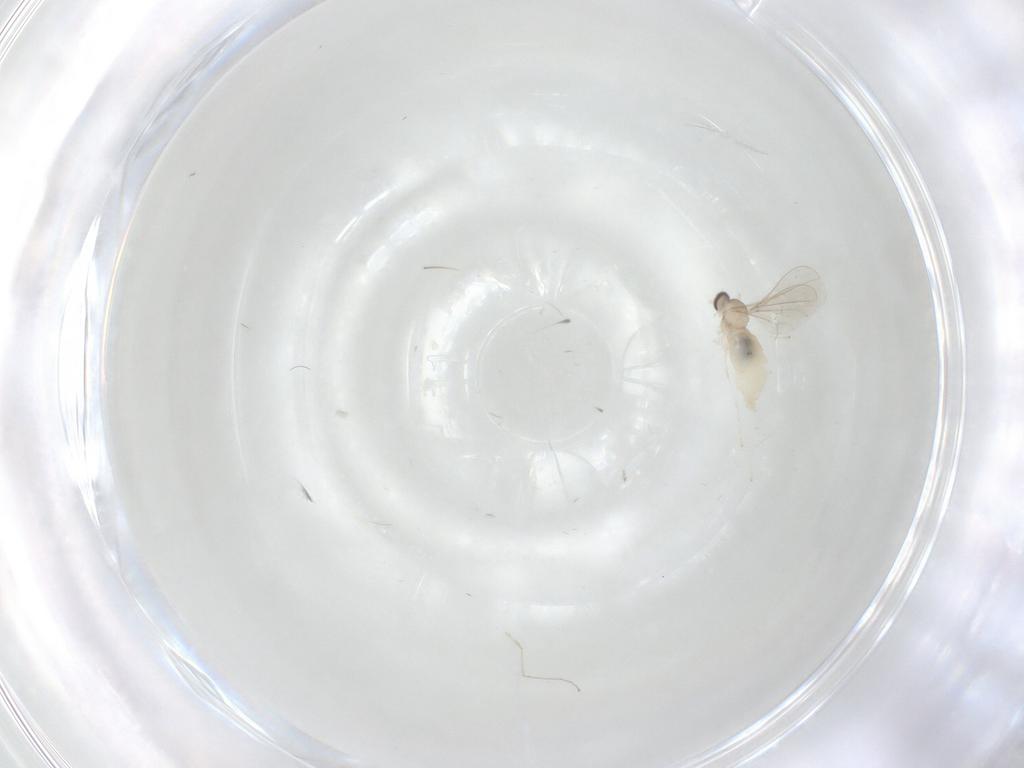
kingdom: Animalia
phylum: Arthropoda
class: Insecta
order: Diptera
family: Cecidomyiidae
